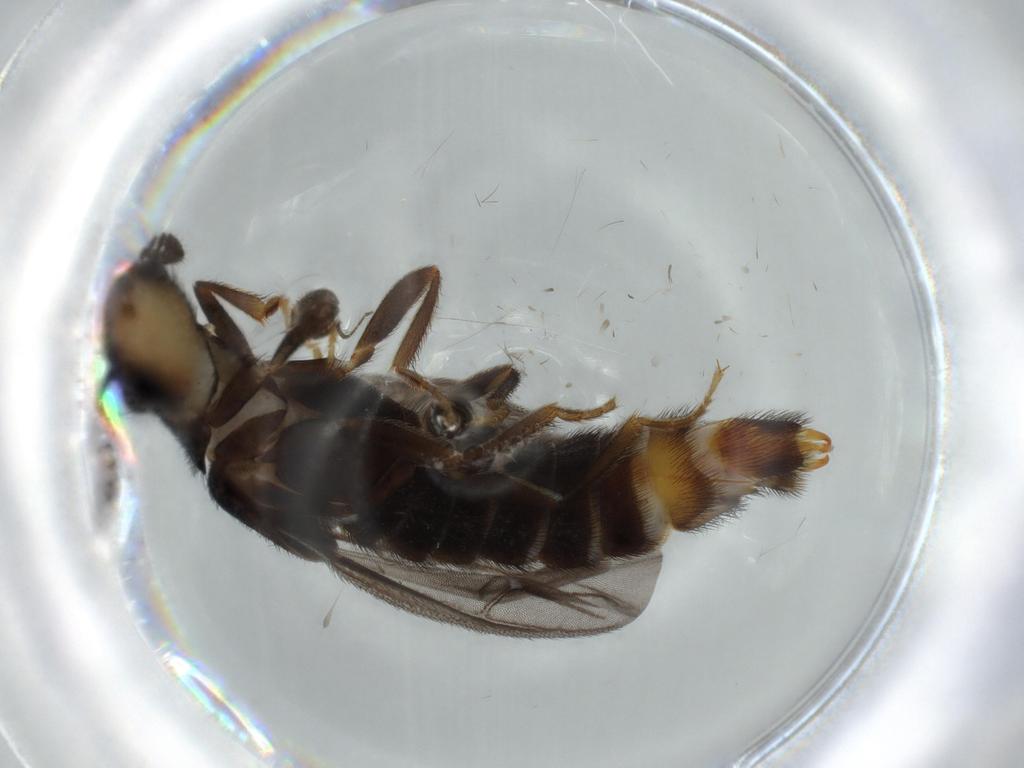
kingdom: Animalia
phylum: Arthropoda
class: Insecta
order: Coleoptera
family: Phengodidae
